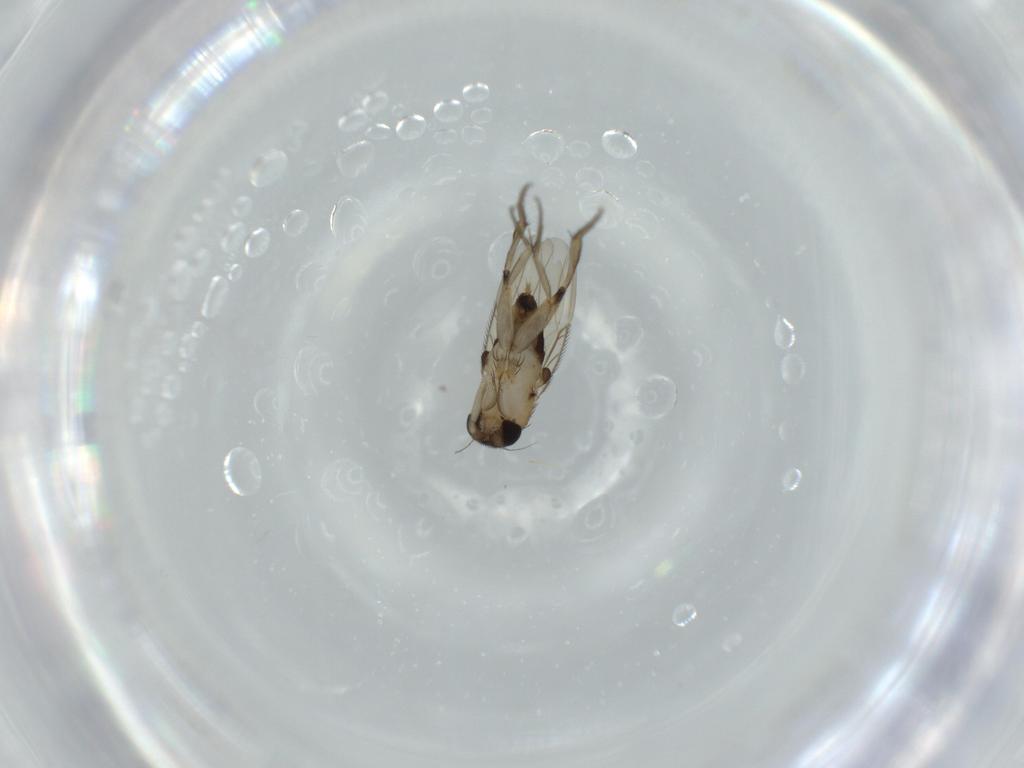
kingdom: Animalia
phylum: Arthropoda
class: Insecta
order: Diptera
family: Phoridae
